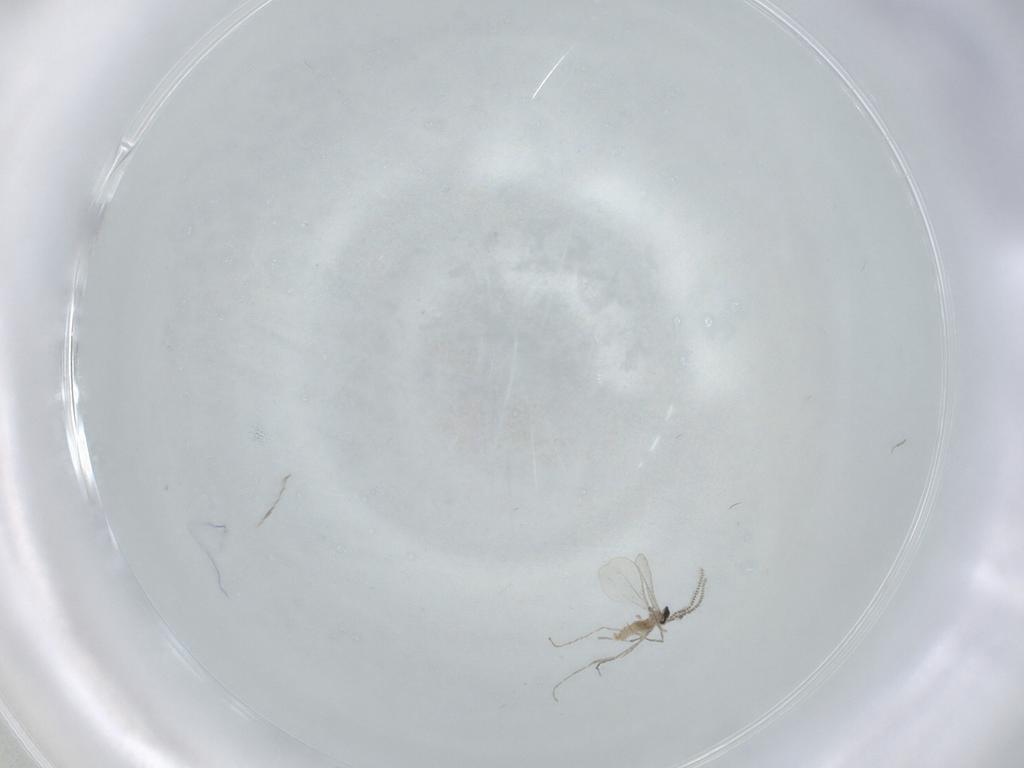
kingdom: Animalia
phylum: Arthropoda
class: Insecta
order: Diptera
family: Cecidomyiidae
